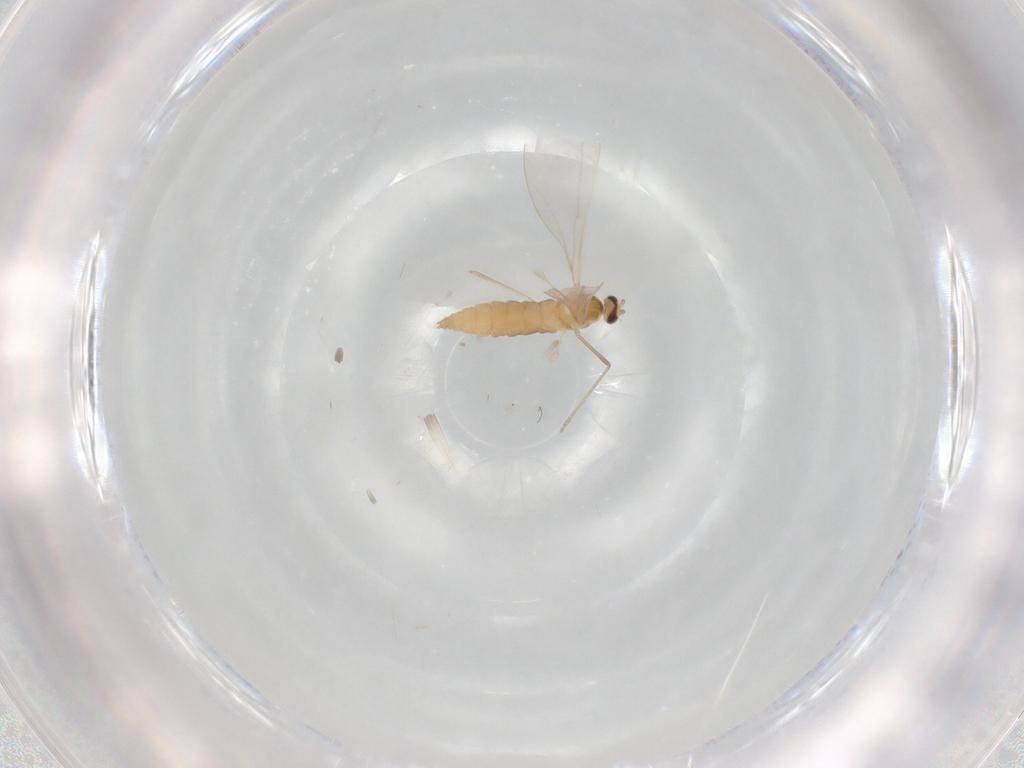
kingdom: Animalia
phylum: Arthropoda
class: Insecta
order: Diptera
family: Cecidomyiidae
